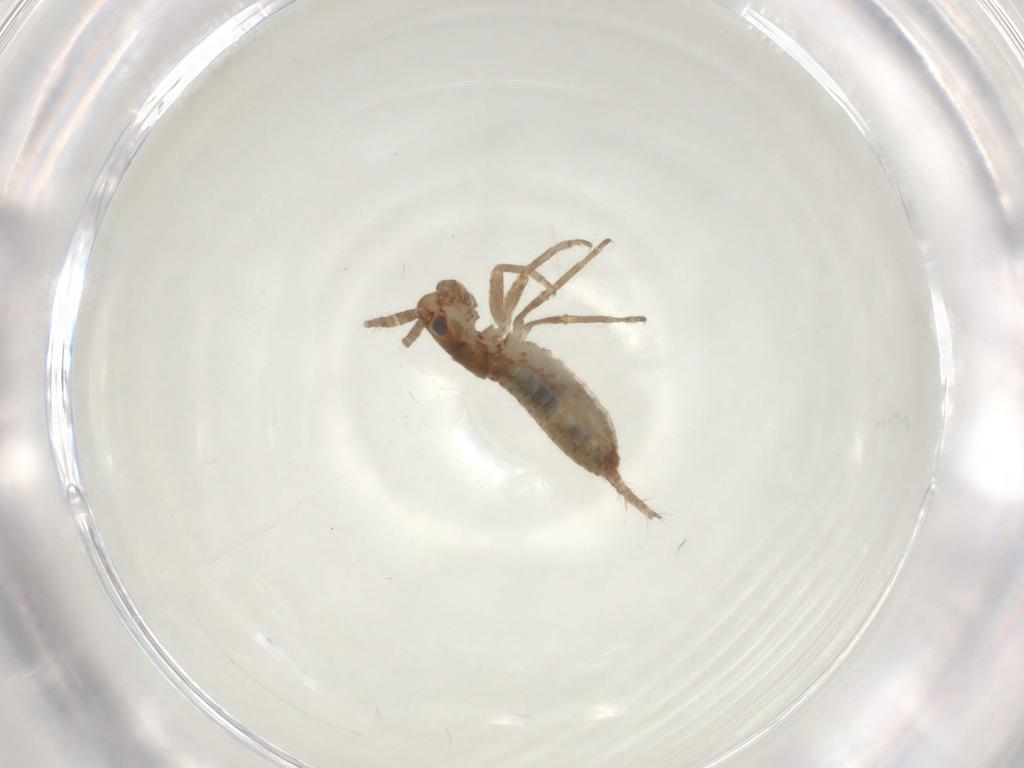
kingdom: Animalia
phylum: Arthropoda
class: Insecta
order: Orthoptera
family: Mogoplistidae
